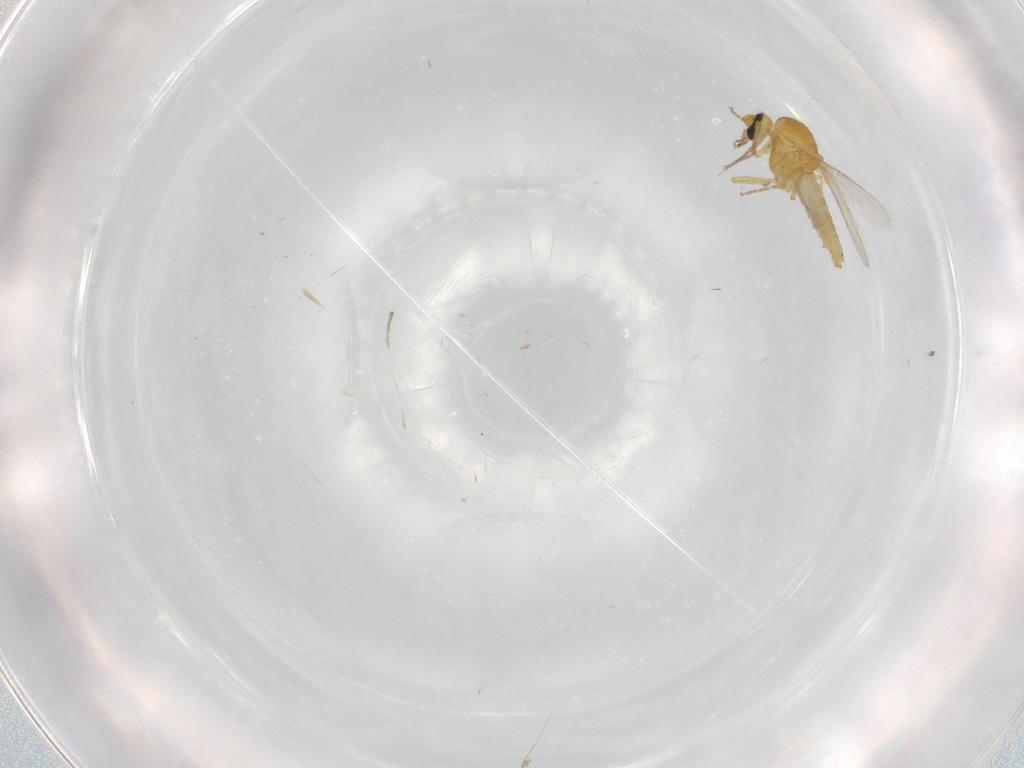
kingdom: Animalia
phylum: Arthropoda
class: Insecta
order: Diptera
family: Ceratopogonidae
